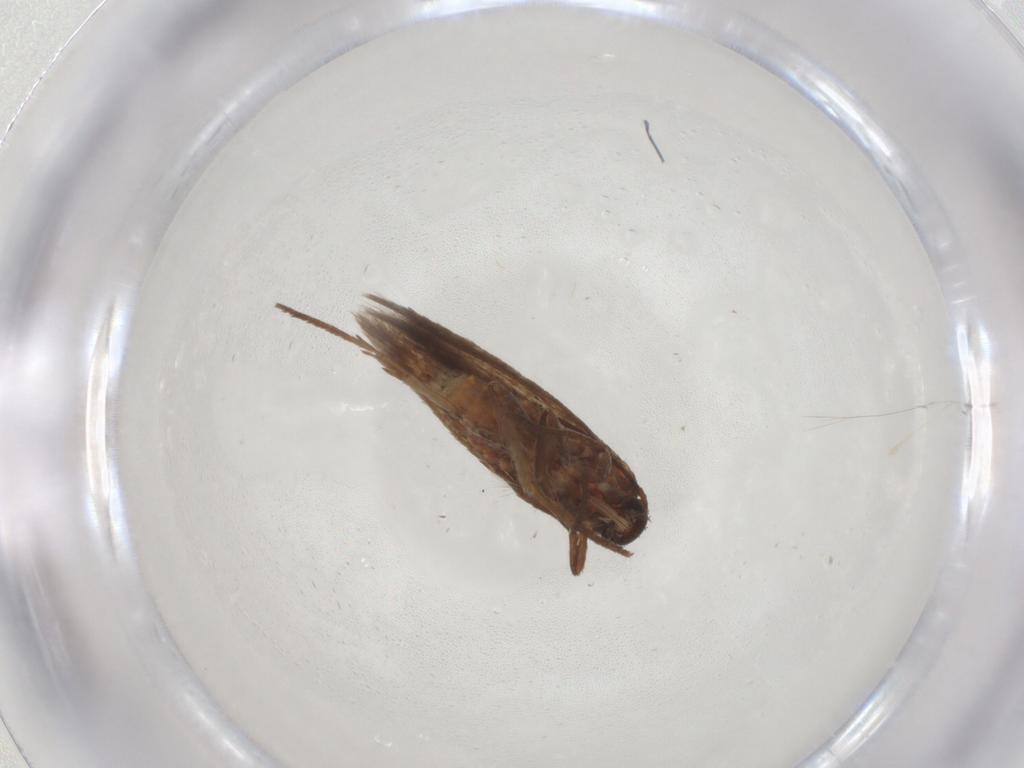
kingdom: Animalia
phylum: Arthropoda
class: Insecta
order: Lepidoptera
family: Scythrididae
